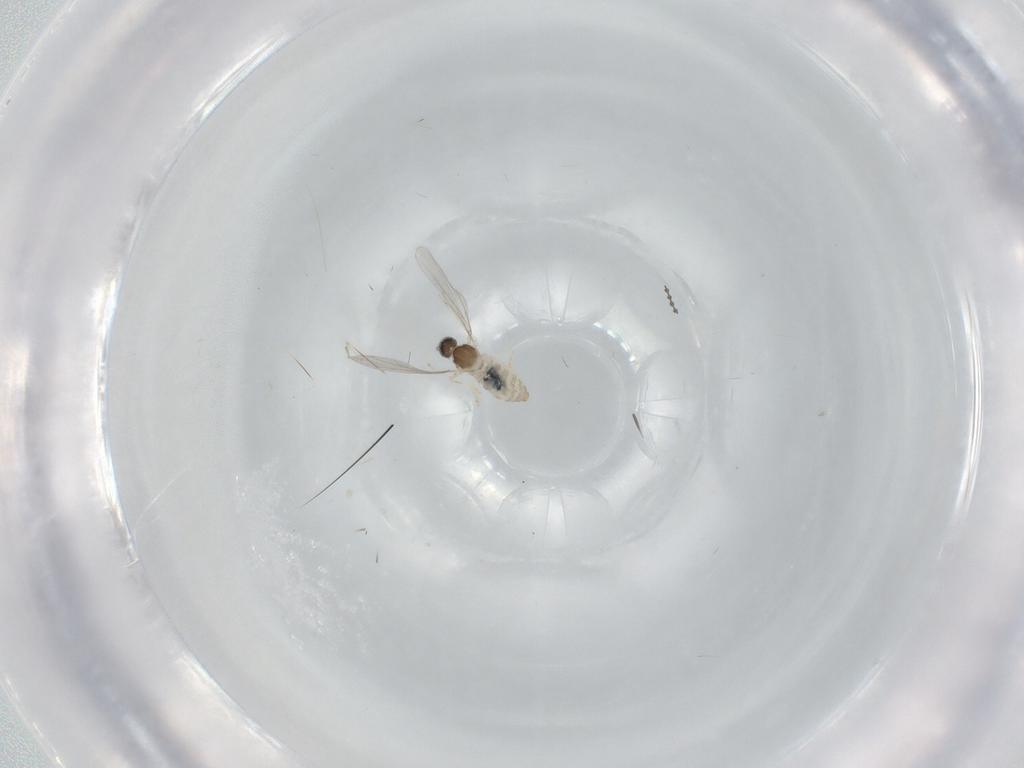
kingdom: Animalia
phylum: Arthropoda
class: Insecta
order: Diptera
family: Cecidomyiidae
